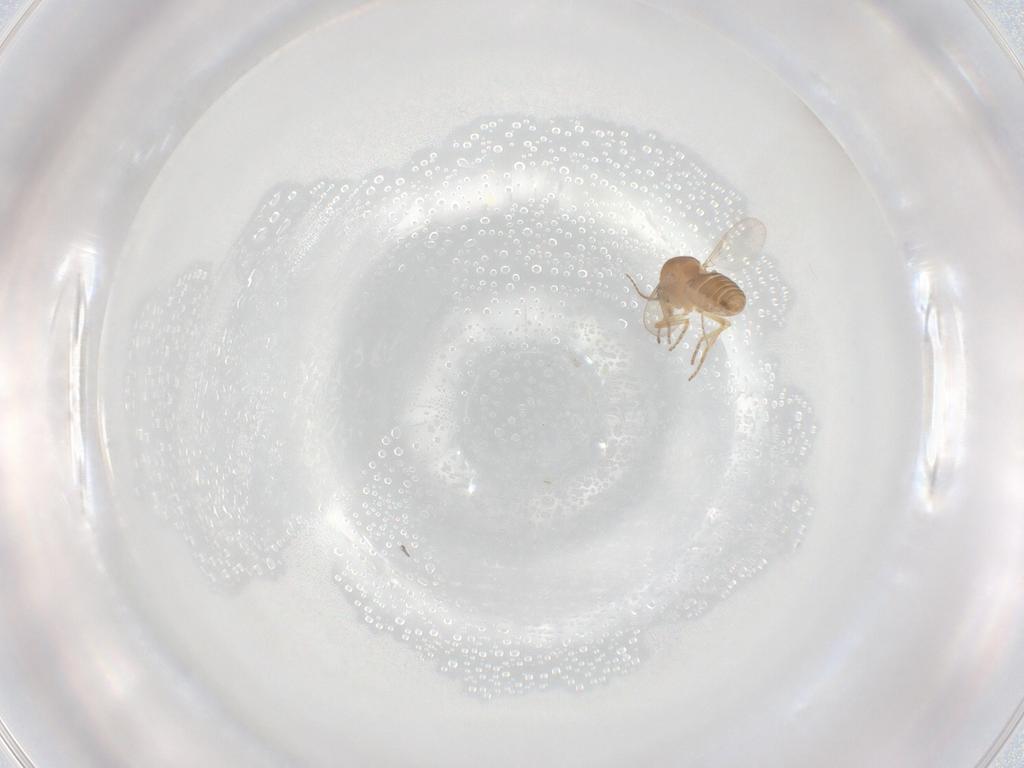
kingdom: Animalia
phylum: Arthropoda
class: Insecta
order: Diptera
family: Ceratopogonidae
